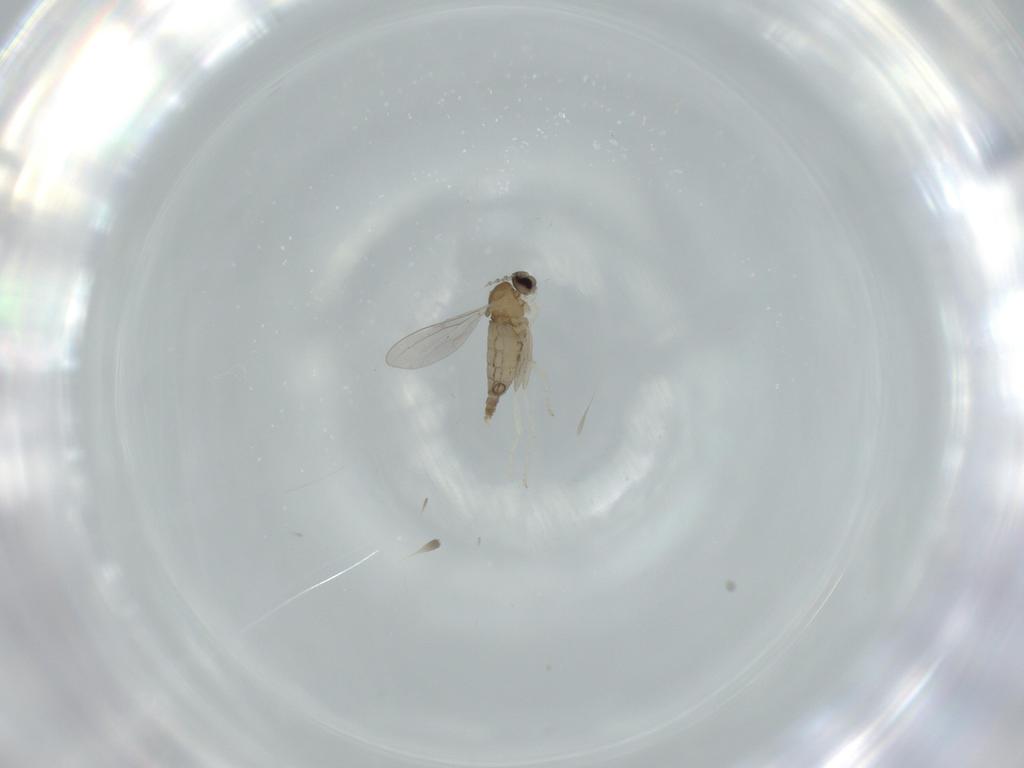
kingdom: Animalia
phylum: Arthropoda
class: Insecta
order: Diptera
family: Cecidomyiidae
